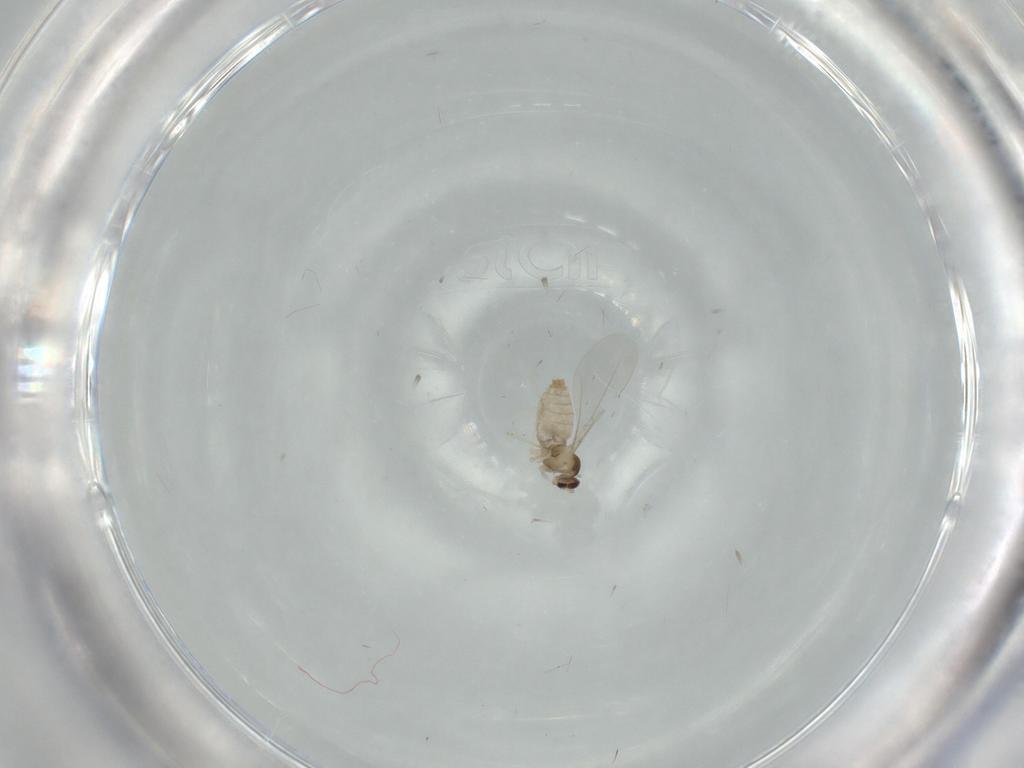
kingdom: Animalia
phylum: Arthropoda
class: Insecta
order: Diptera
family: Cecidomyiidae
